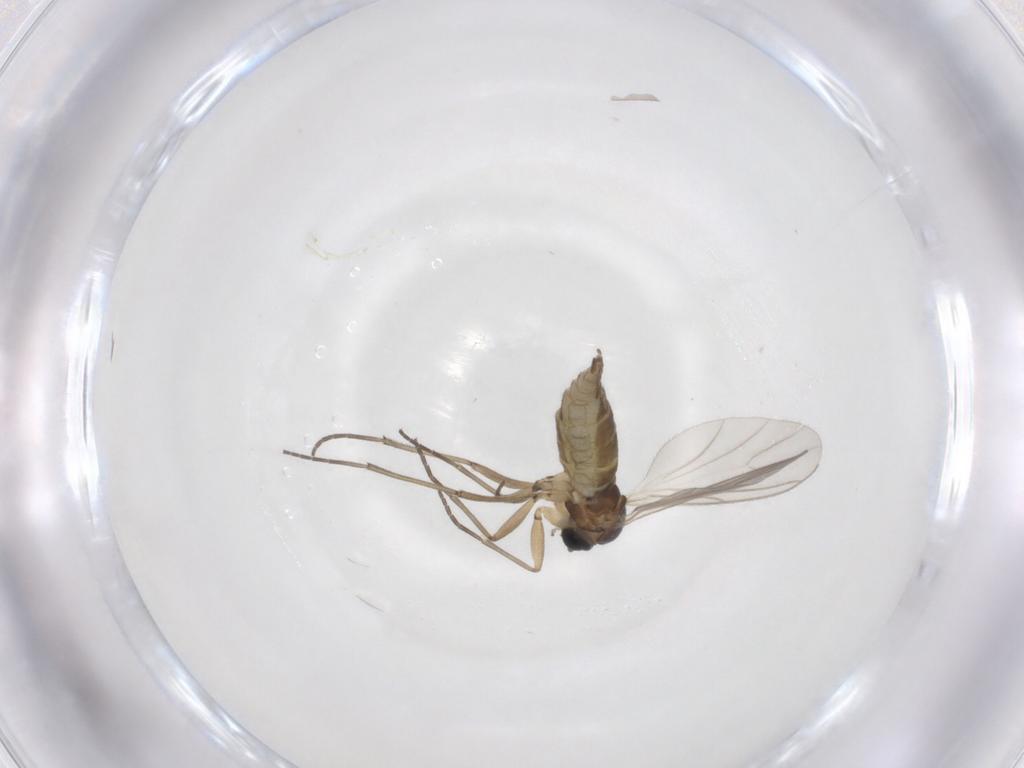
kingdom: Animalia
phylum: Arthropoda
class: Insecta
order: Diptera
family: Culicidae
